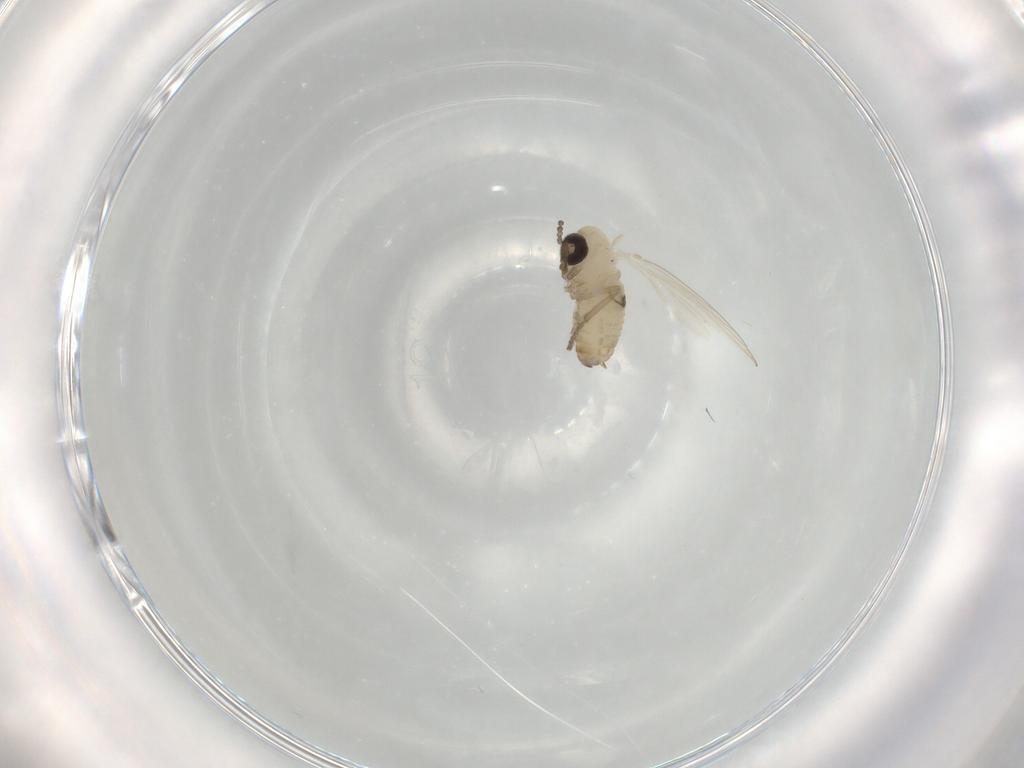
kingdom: Animalia
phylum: Arthropoda
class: Insecta
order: Diptera
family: Psychodidae
